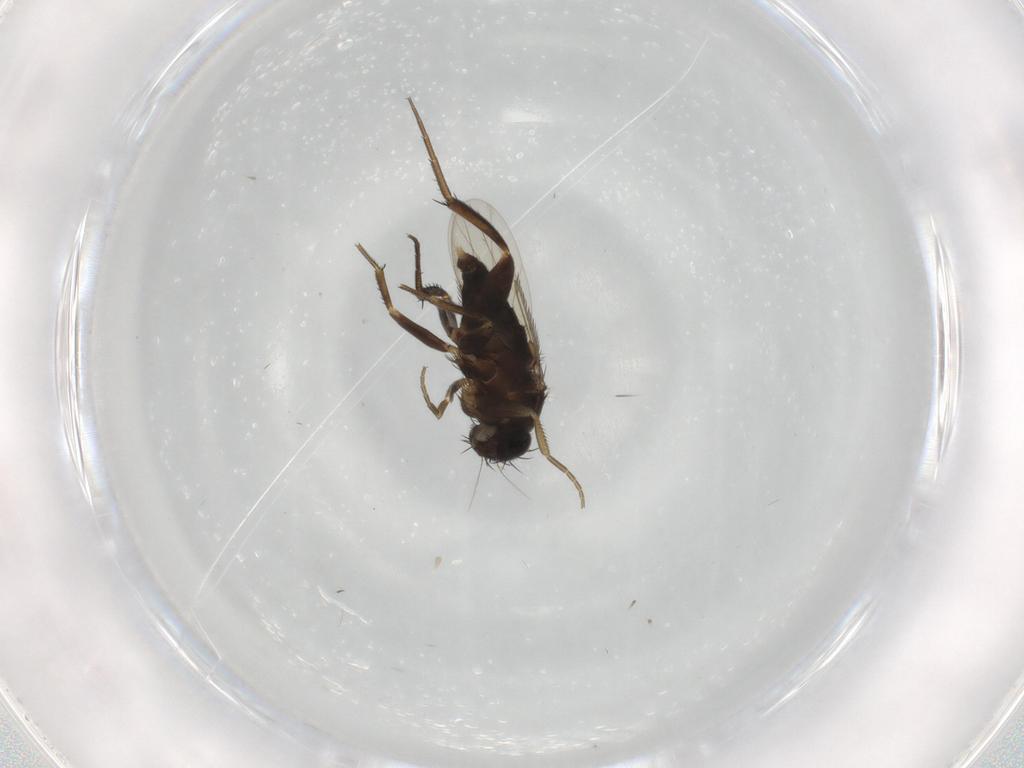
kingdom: Animalia
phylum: Arthropoda
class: Insecta
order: Diptera
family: Phoridae
